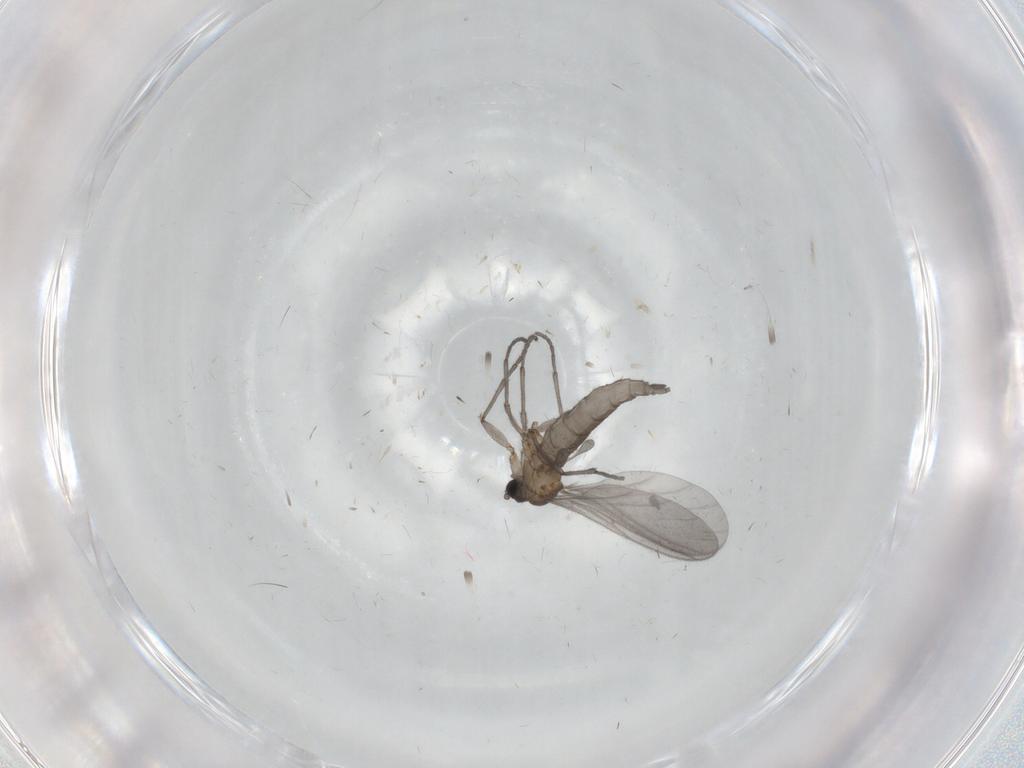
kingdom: Animalia
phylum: Arthropoda
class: Insecta
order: Diptera
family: Sciaridae
